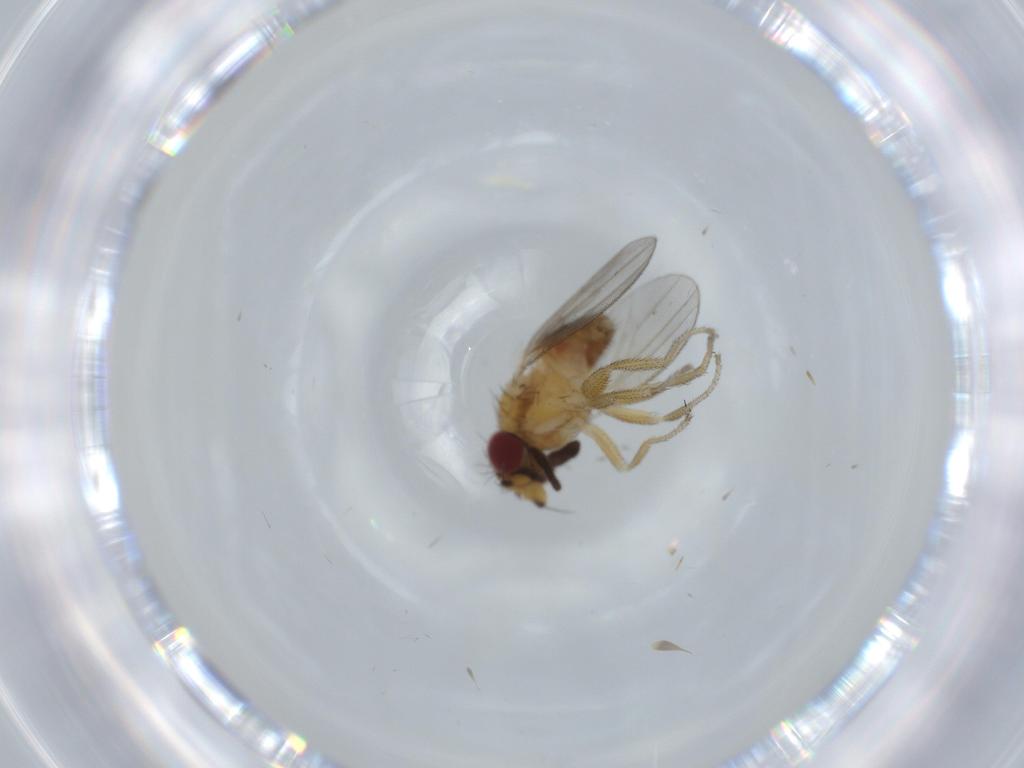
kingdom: Animalia
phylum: Arthropoda
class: Insecta
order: Diptera
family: Milichiidae
